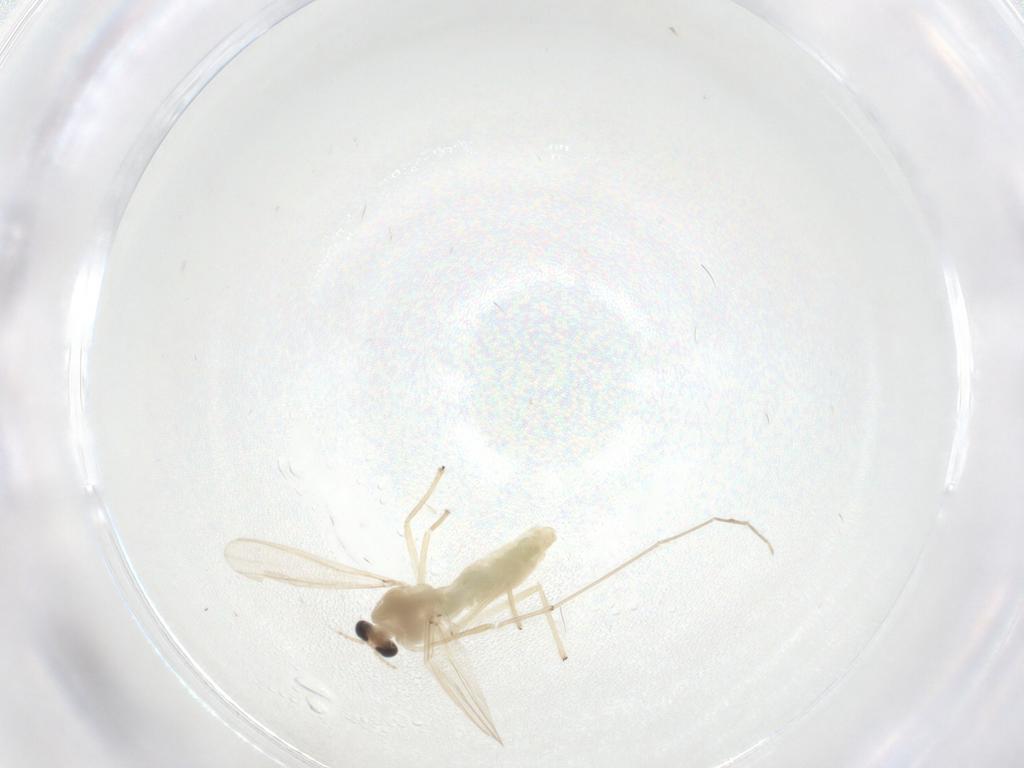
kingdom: Animalia
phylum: Arthropoda
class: Insecta
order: Diptera
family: Chironomidae
